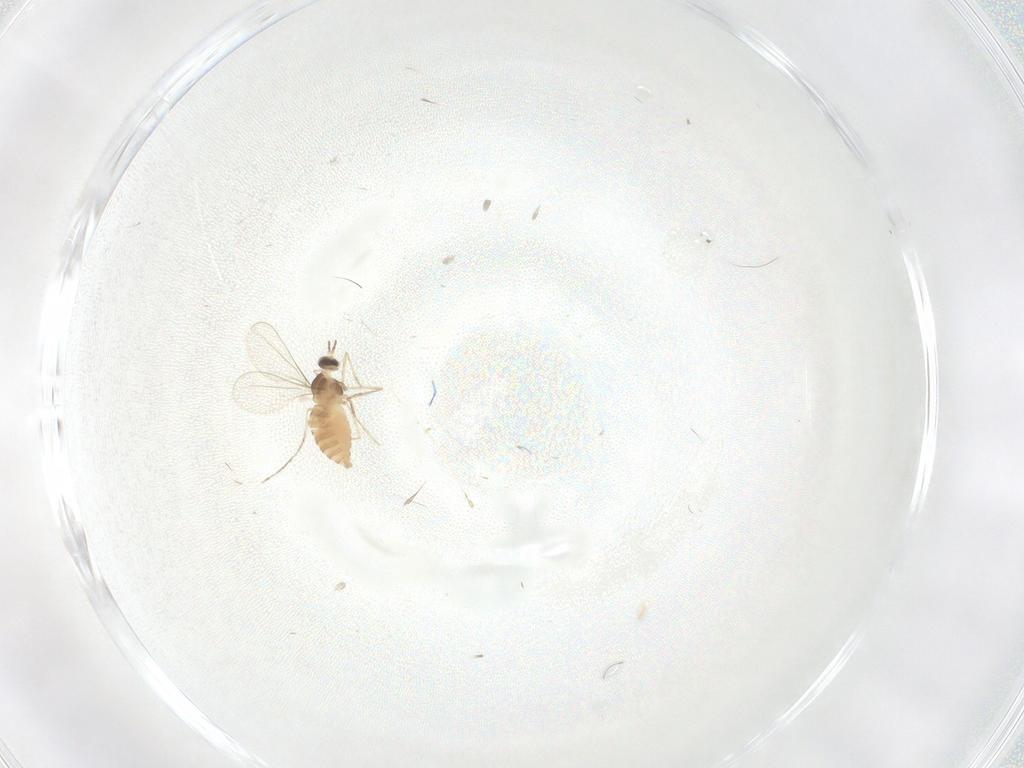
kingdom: Animalia
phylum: Arthropoda
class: Insecta
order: Diptera
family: Cecidomyiidae
